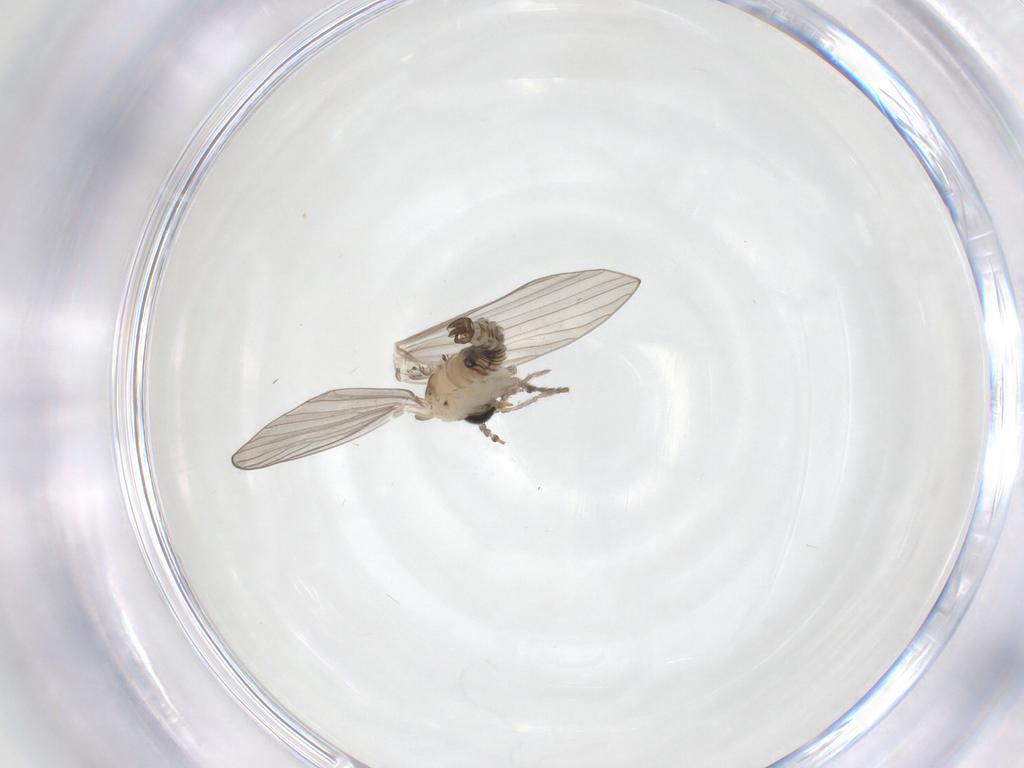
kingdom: Animalia
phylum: Arthropoda
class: Insecta
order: Diptera
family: Psychodidae
